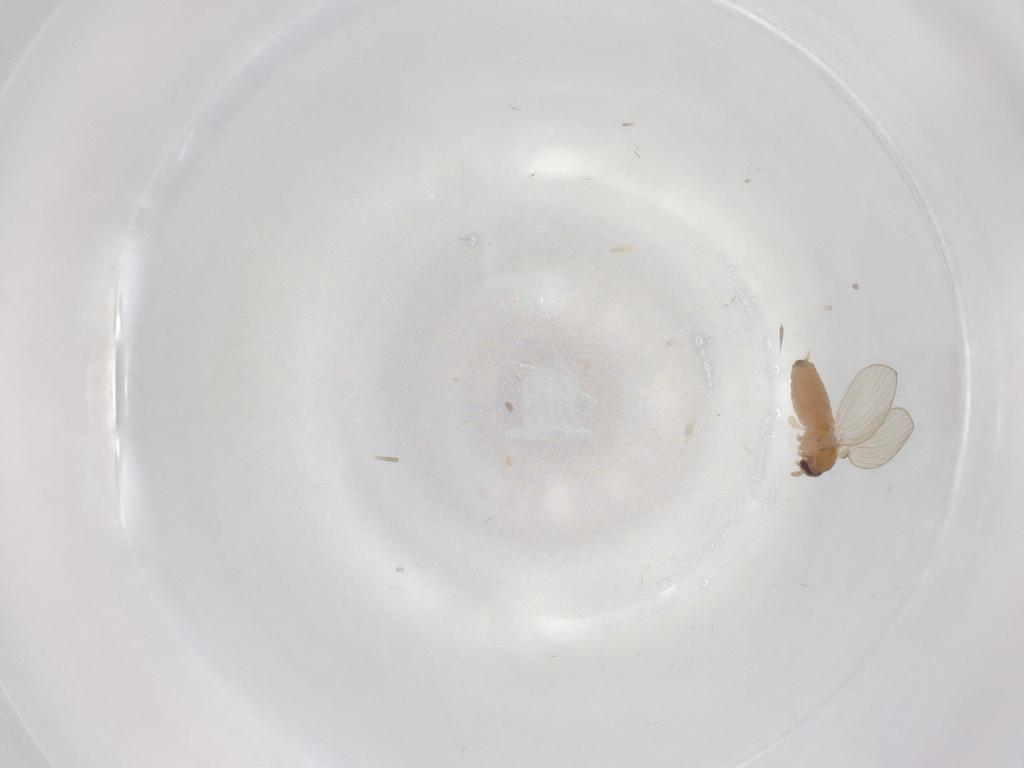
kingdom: Animalia
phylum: Arthropoda
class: Insecta
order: Diptera
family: Psychodidae
